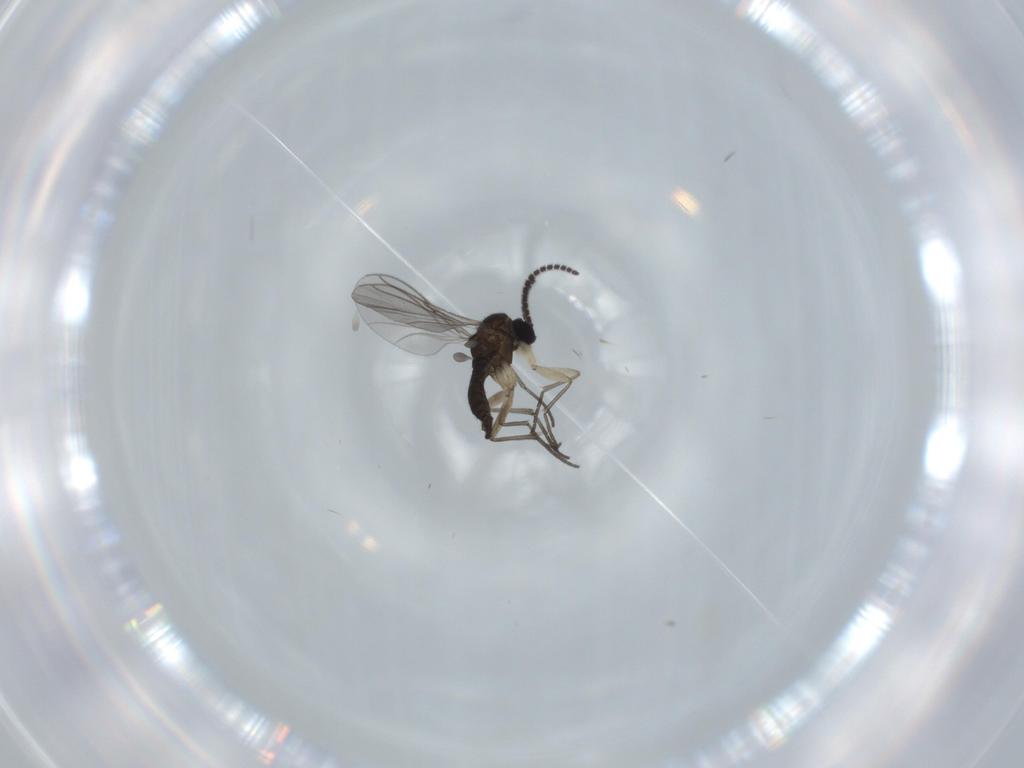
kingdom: Animalia
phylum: Arthropoda
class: Insecta
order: Diptera
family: Sciaridae
